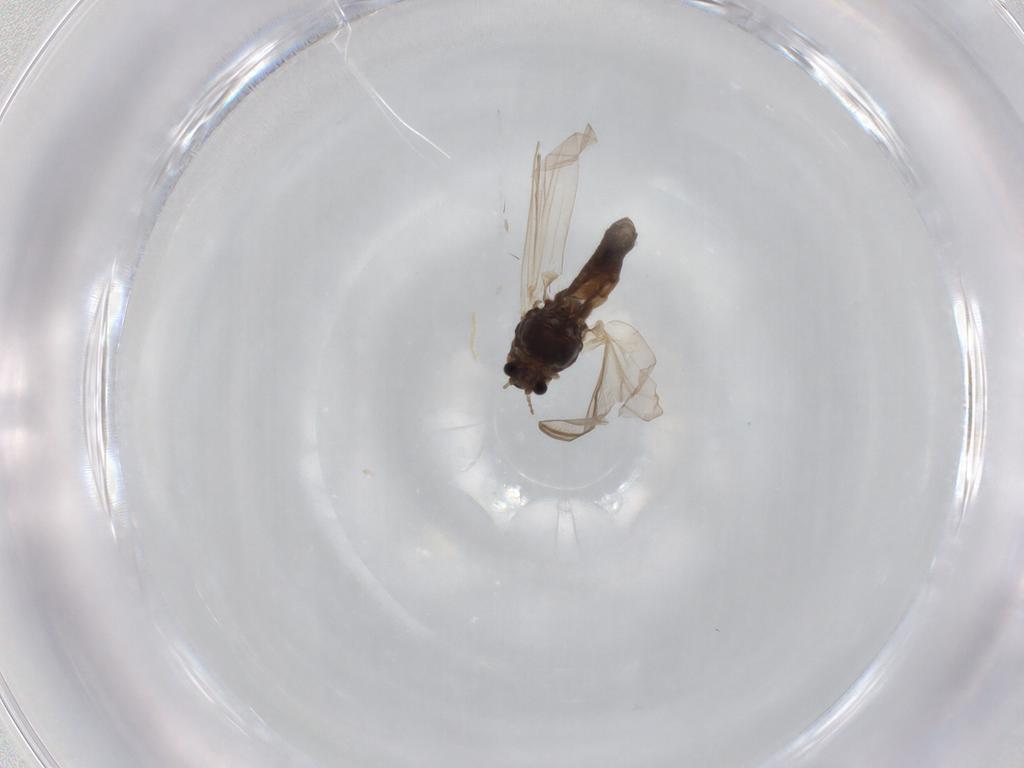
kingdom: Animalia
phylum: Arthropoda
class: Insecta
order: Diptera
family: Chironomidae
